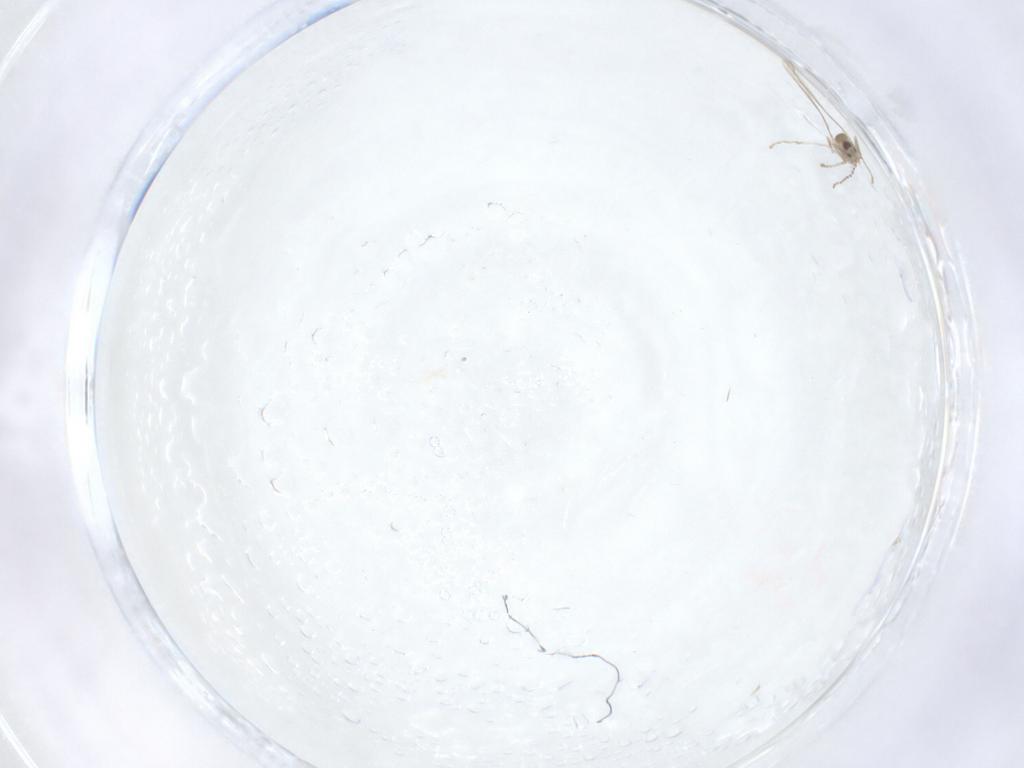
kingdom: Animalia
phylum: Arthropoda
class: Insecta
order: Diptera
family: Cecidomyiidae
